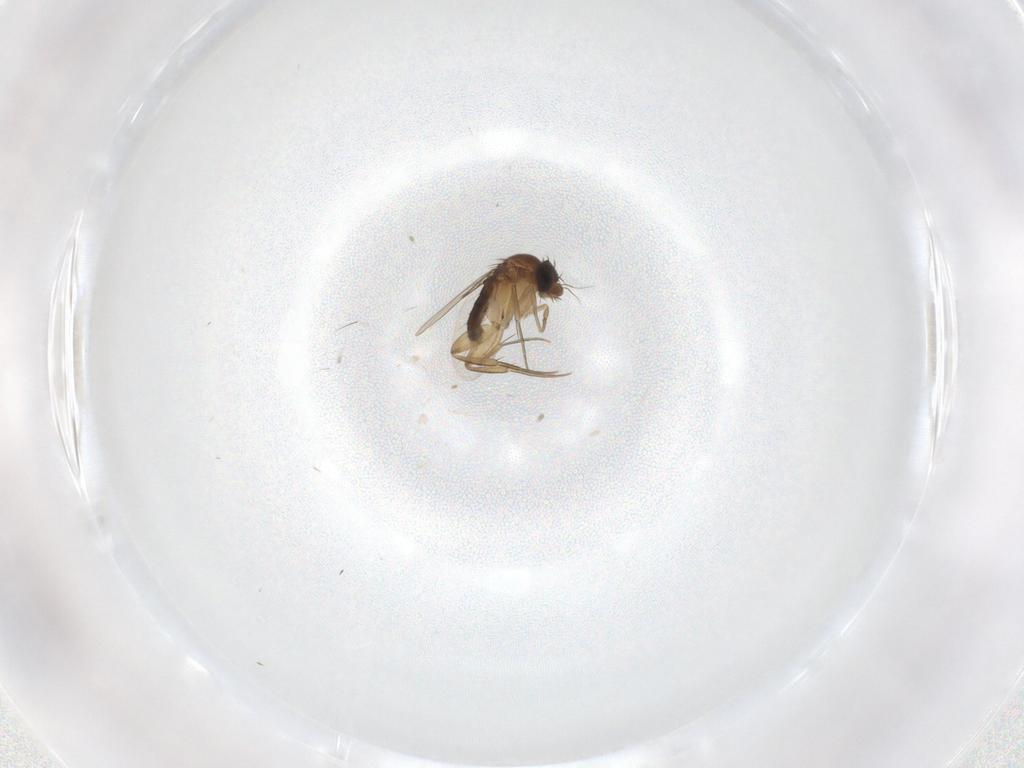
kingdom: Animalia
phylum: Arthropoda
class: Insecta
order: Diptera
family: Phoridae
